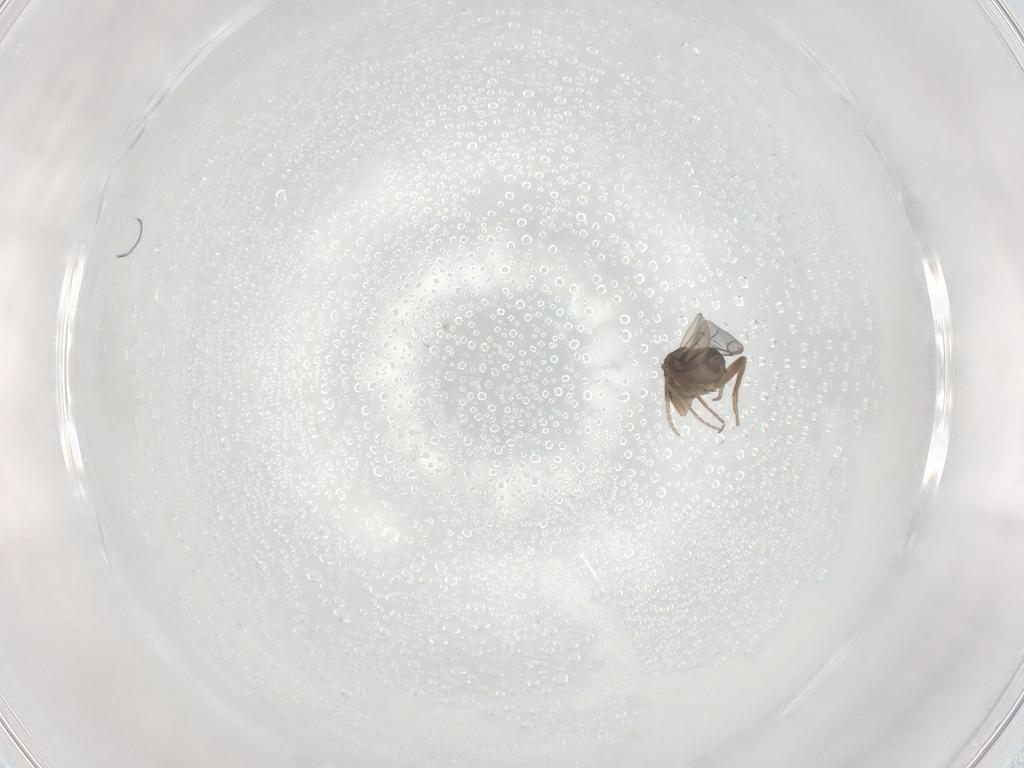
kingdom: Animalia
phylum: Arthropoda
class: Insecta
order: Diptera
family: Phoridae
